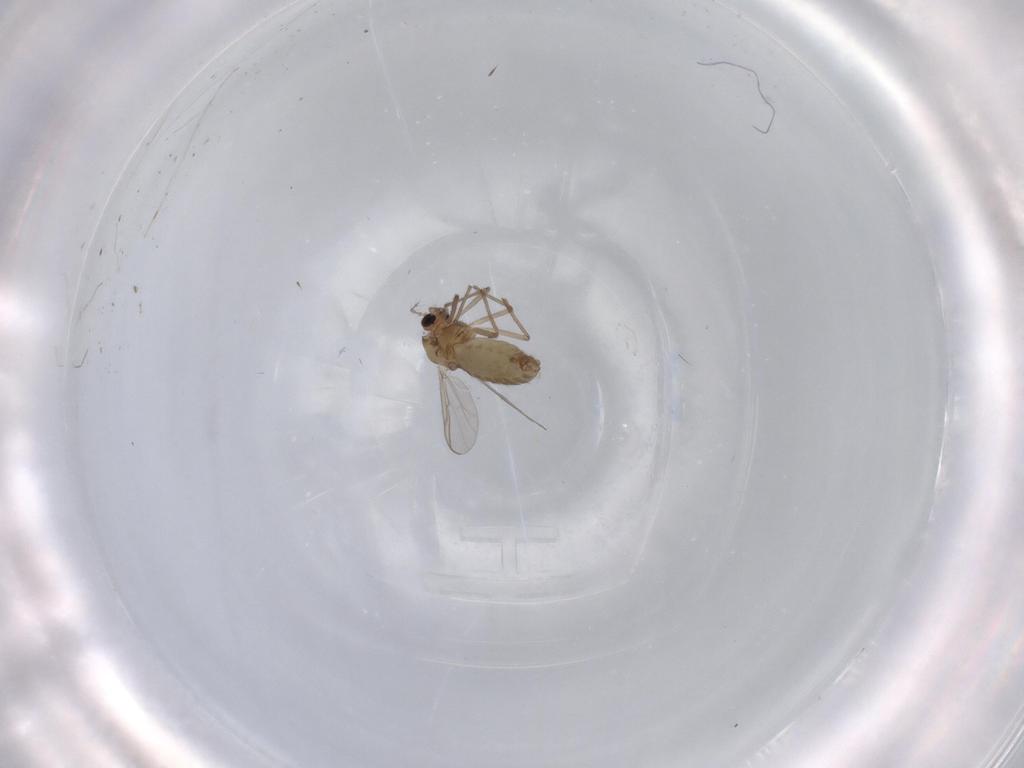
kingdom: Animalia
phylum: Arthropoda
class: Insecta
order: Diptera
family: Chironomidae
